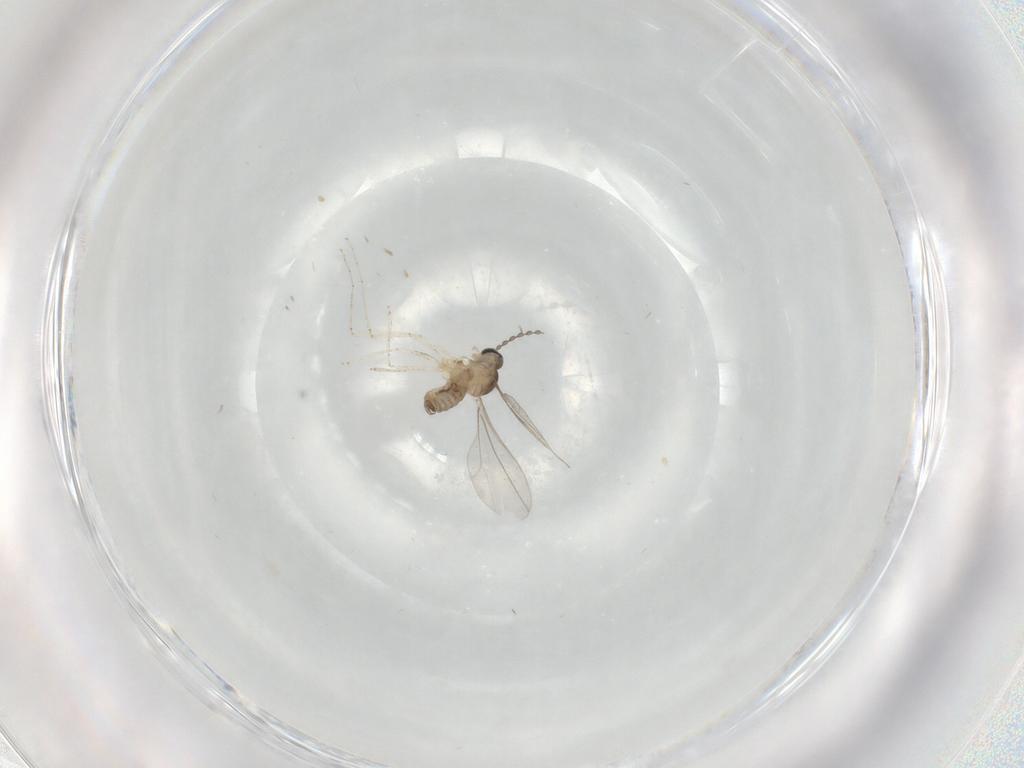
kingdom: Animalia
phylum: Arthropoda
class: Insecta
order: Diptera
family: Cecidomyiidae
